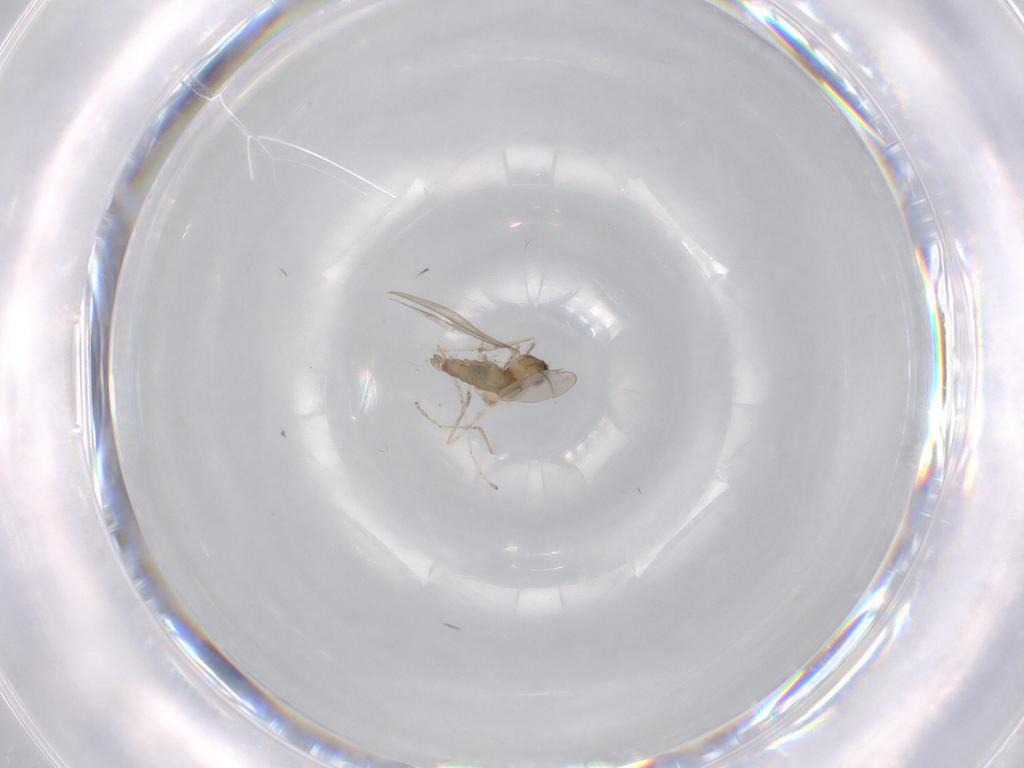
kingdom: Animalia
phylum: Arthropoda
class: Insecta
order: Diptera
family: Cecidomyiidae
